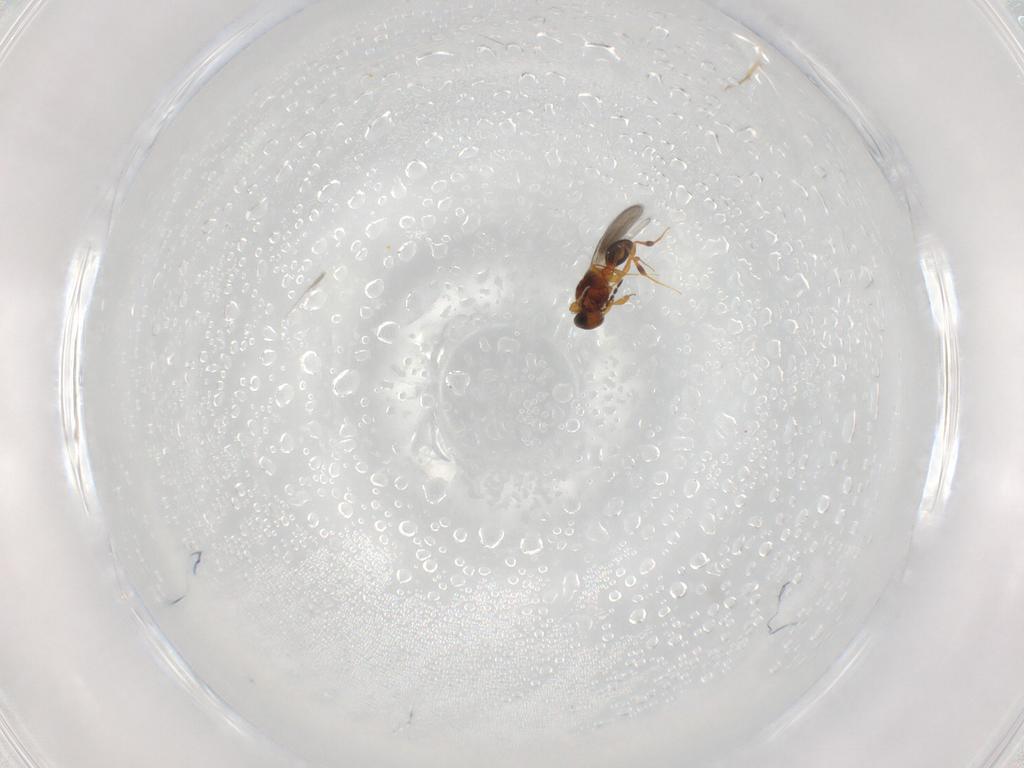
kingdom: Animalia
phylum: Arthropoda
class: Insecta
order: Hymenoptera
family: Platygastridae
